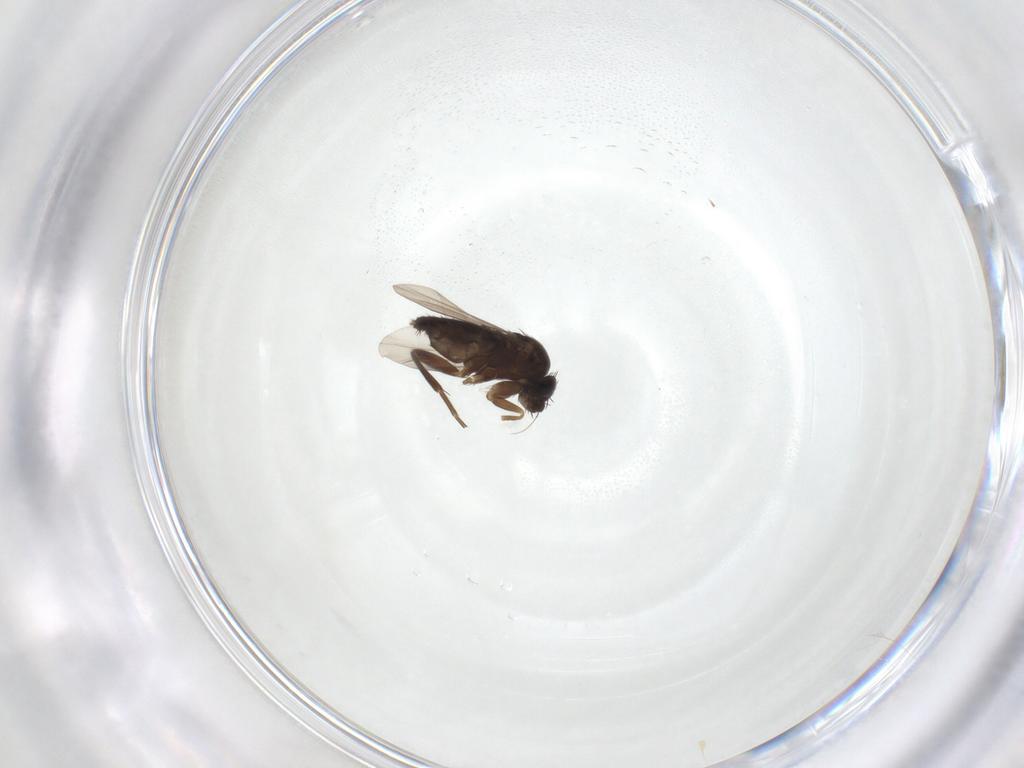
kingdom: Animalia
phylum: Arthropoda
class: Insecta
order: Diptera
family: Phoridae
